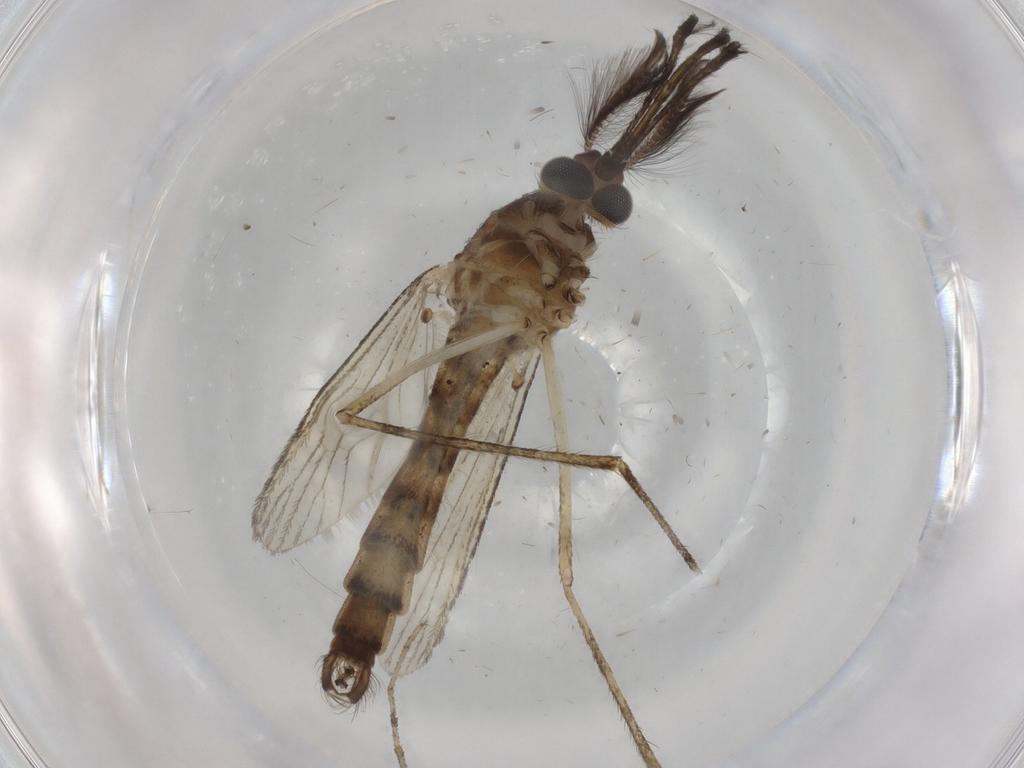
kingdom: Animalia
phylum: Arthropoda
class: Insecta
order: Diptera
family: Cecidomyiidae
